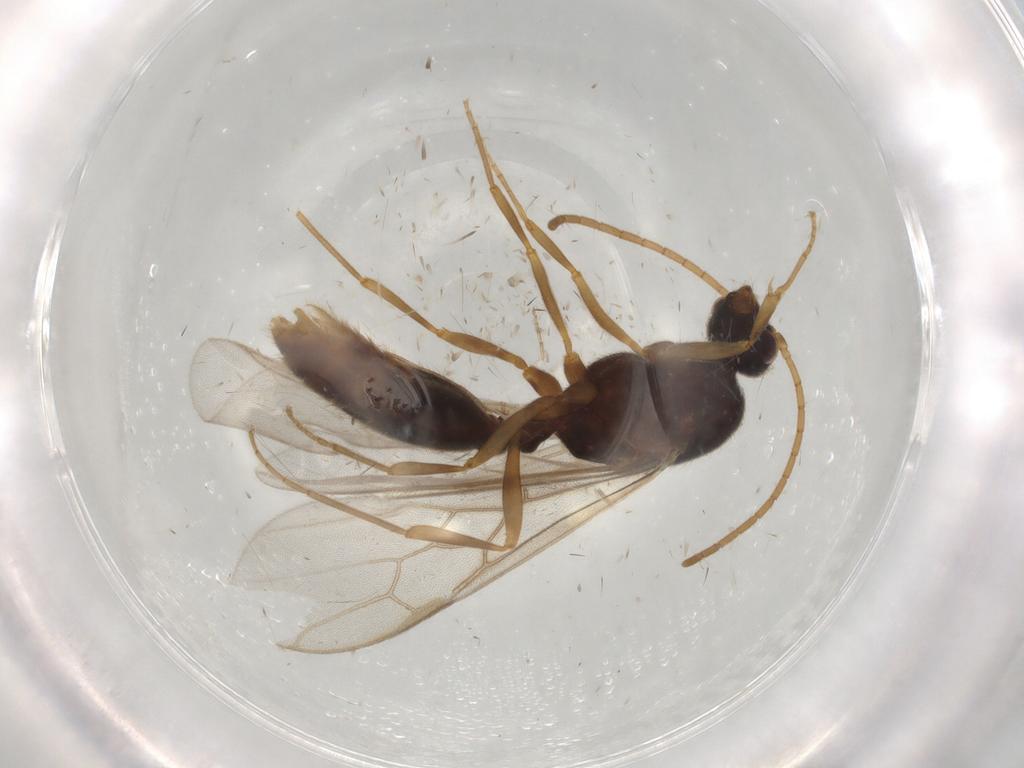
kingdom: Animalia
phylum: Arthropoda
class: Insecta
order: Hymenoptera
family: Formicidae
